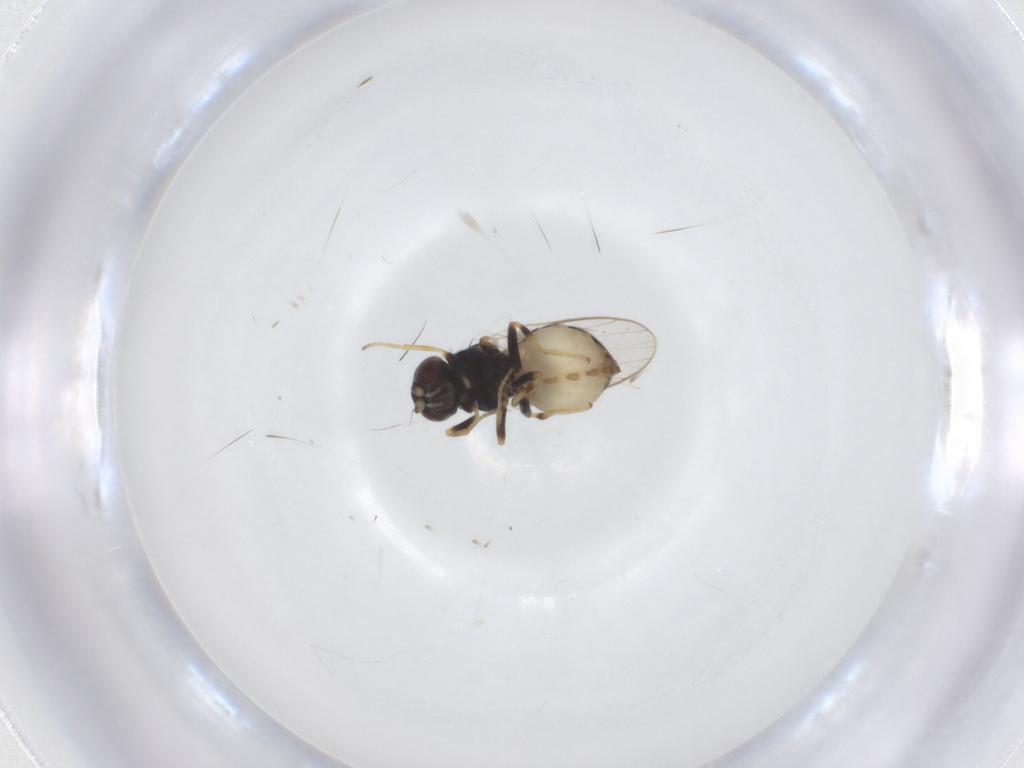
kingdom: Animalia
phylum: Arthropoda
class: Insecta
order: Diptera
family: Chloropidae
